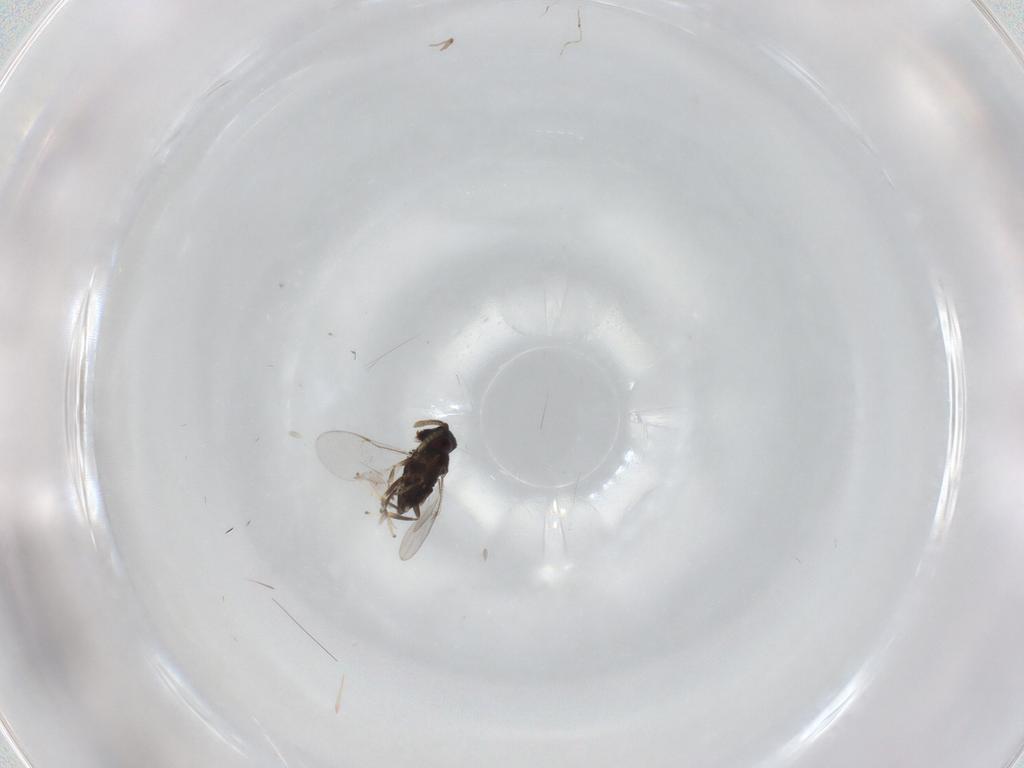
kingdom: Animalia
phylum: Arthropoda
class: Insecta
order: Hymenoptera
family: Encyrtidae
